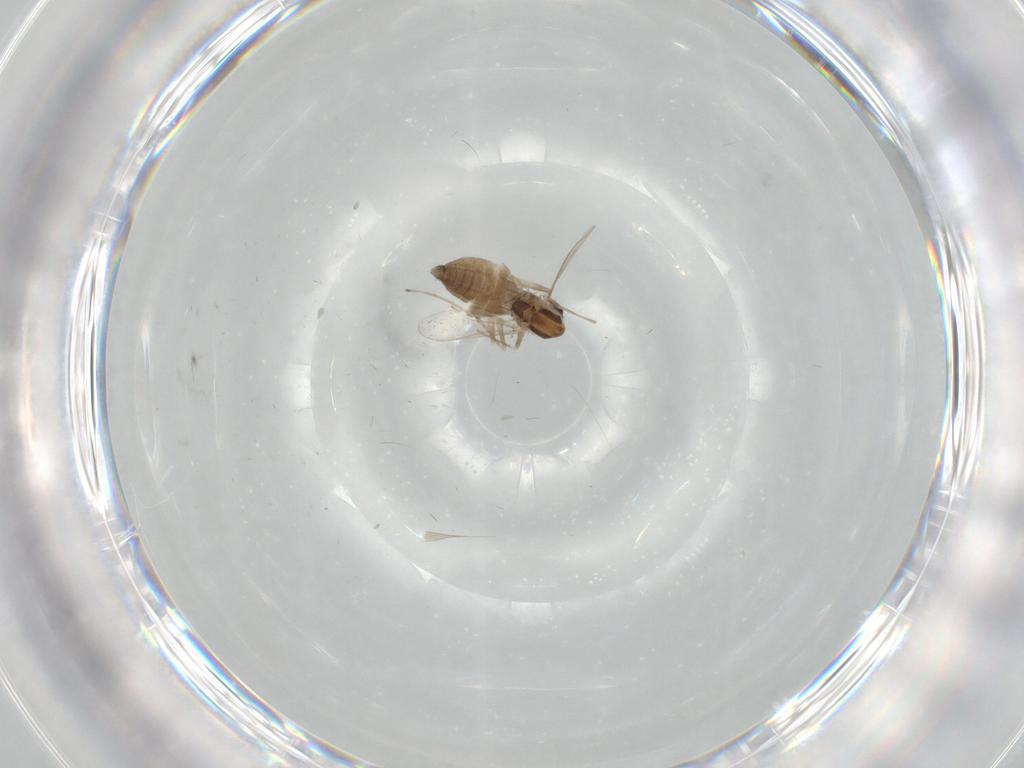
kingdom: Animalia
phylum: Arthropoda
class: Insecta
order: Diptera
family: Chironomidae
